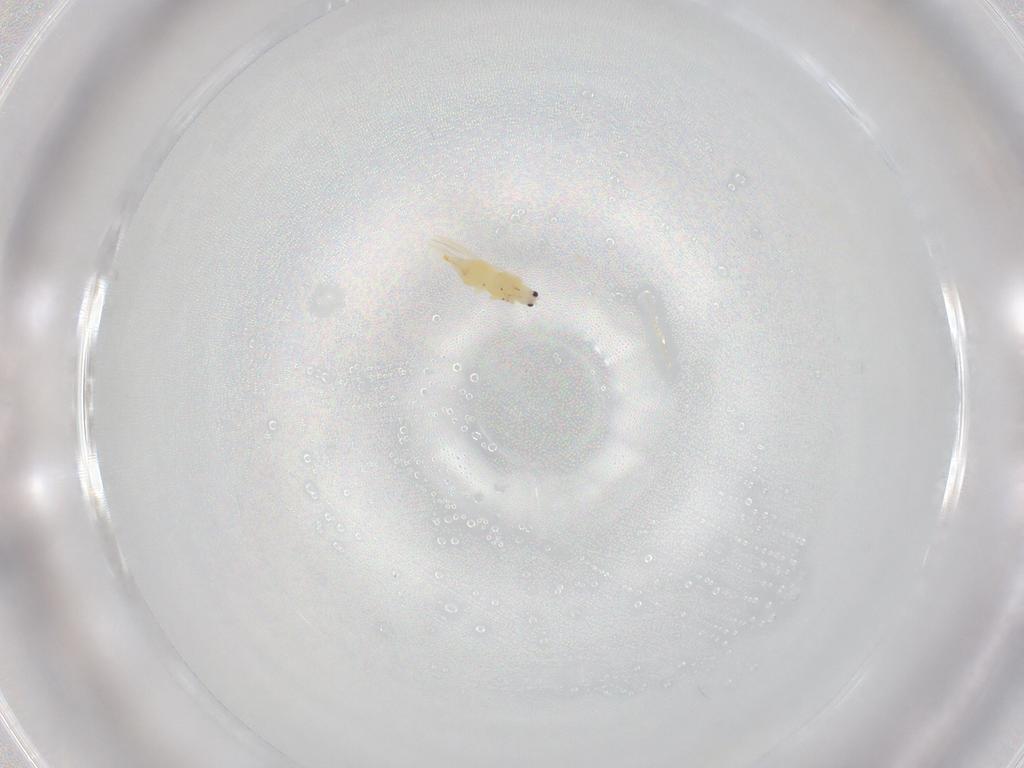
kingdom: Animalia
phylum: Arthropoda
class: Insecta
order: Thysanoptera
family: Thripidae
